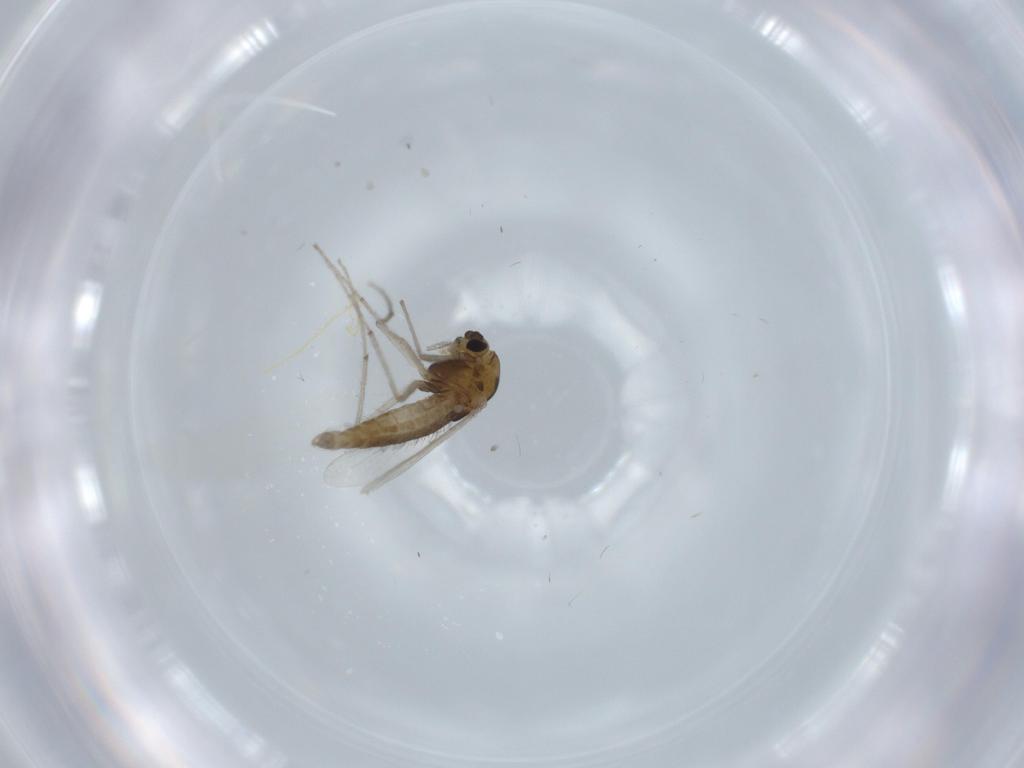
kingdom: Animalia
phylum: Arthropoda
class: Insecta
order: Diptera
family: Chironomidae
